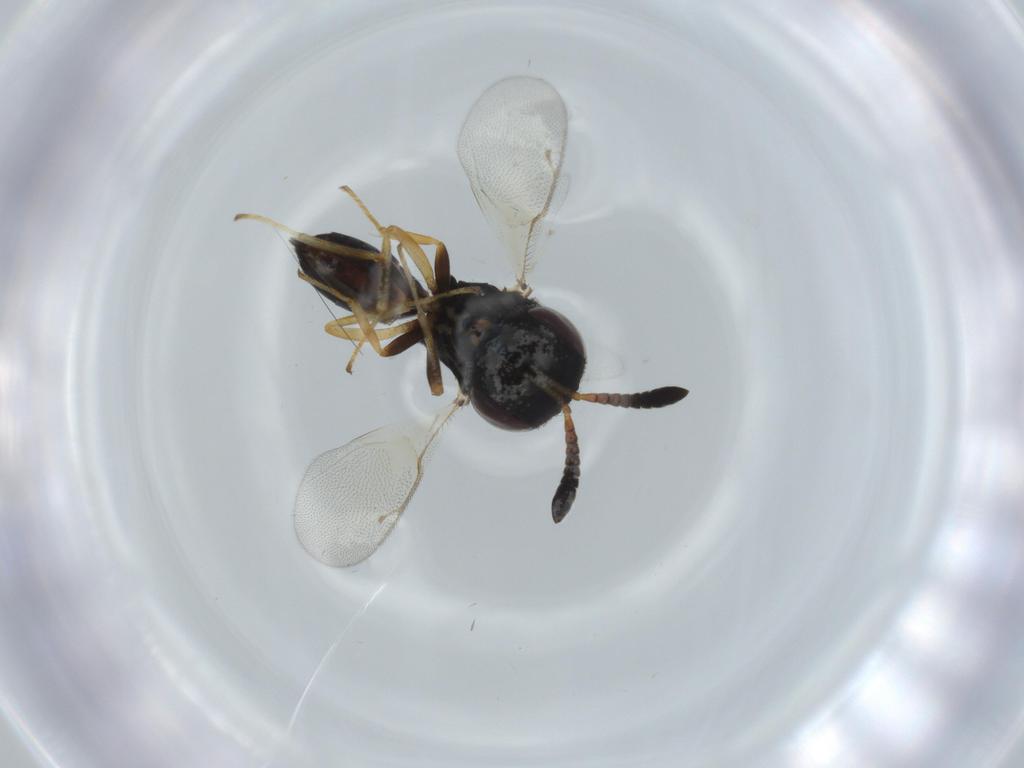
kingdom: Animalia
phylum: Arthropoda
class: Insecta
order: Hymenoptera
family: Pteromalidae
